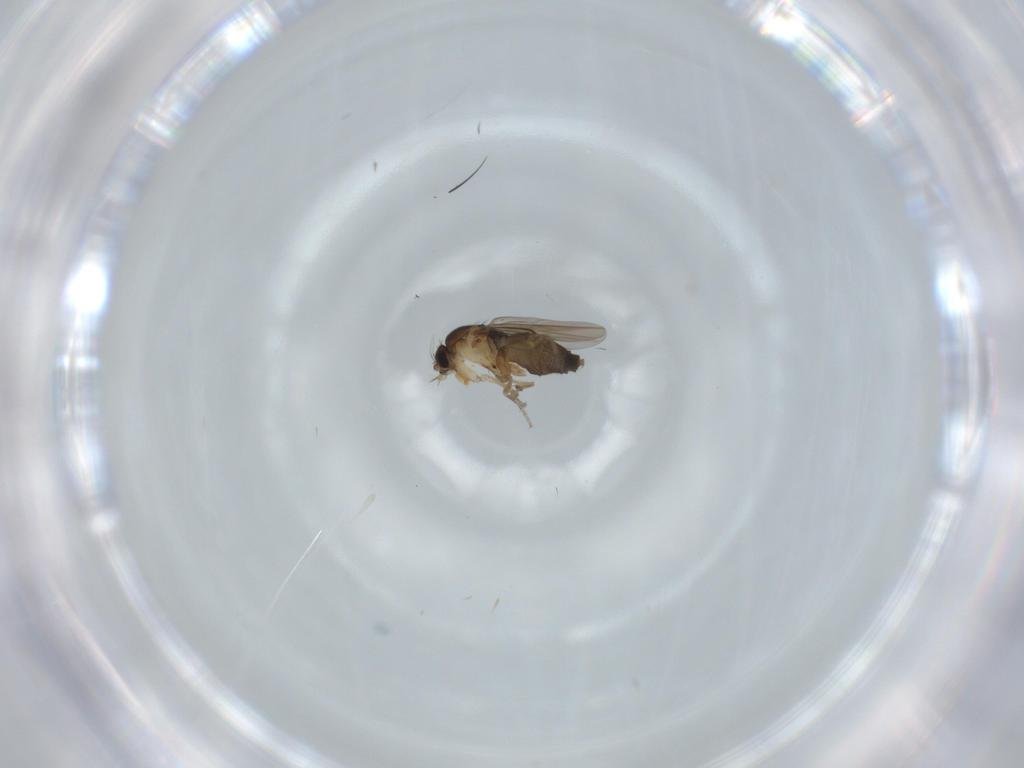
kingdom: Animalia
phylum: Arthropoda
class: Insecta
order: Diptera
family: Phoridae
